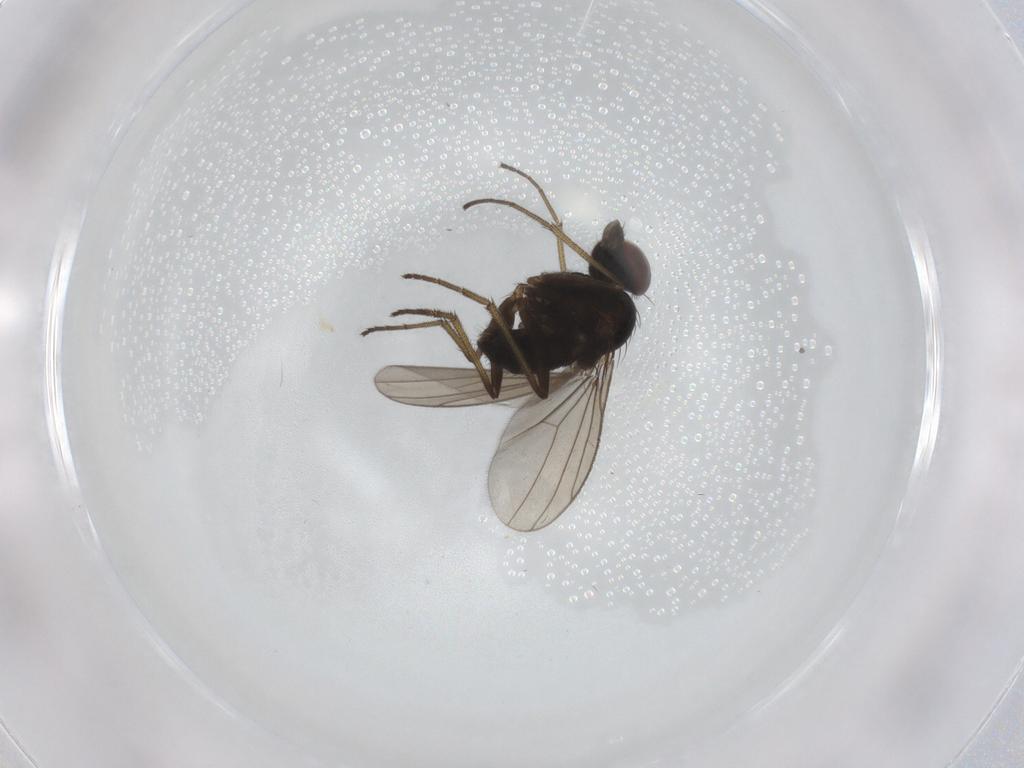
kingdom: Animalia
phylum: Arthropoda
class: Insecta
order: Diptera
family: Dolichopodidae
